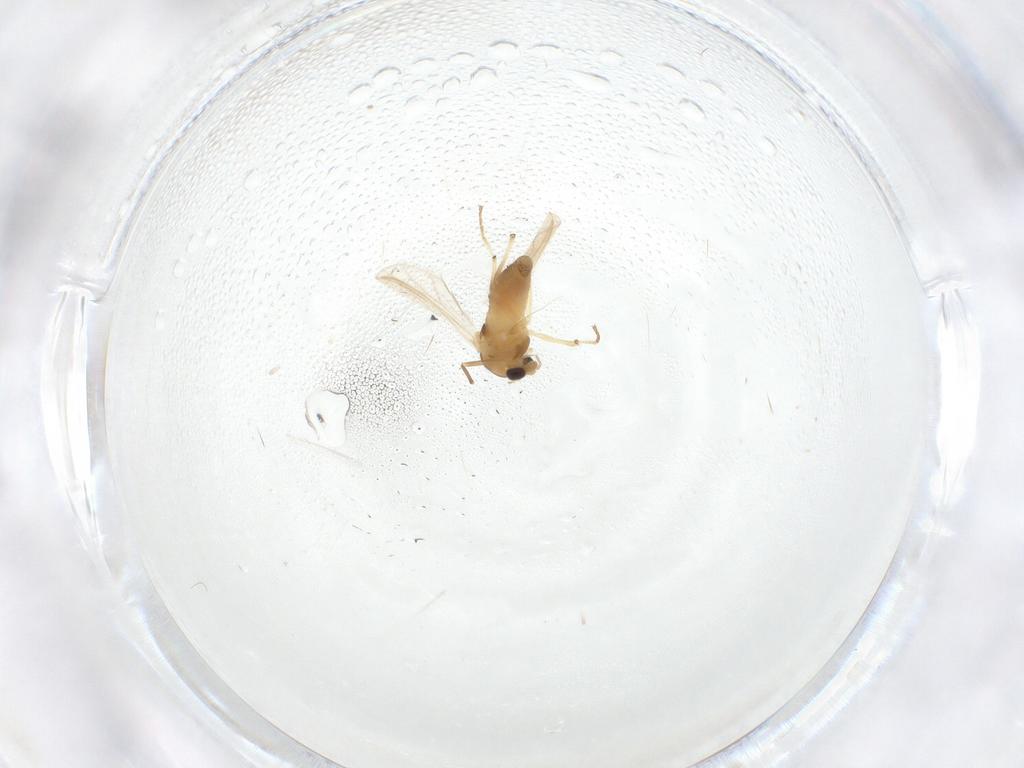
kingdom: Animalia
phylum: Arthropoda
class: Insecta
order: Diptera
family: Chironomidae
